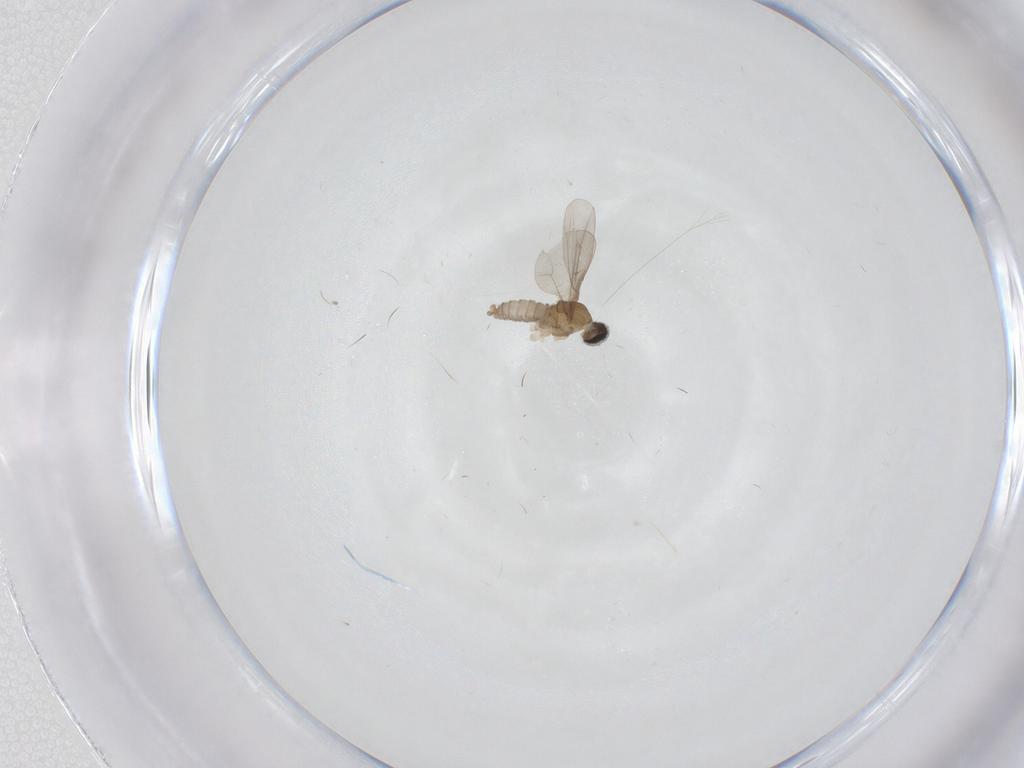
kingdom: Animalia
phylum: Arthropoda
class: Insecta
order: Diptera
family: Cecidomyiidae
